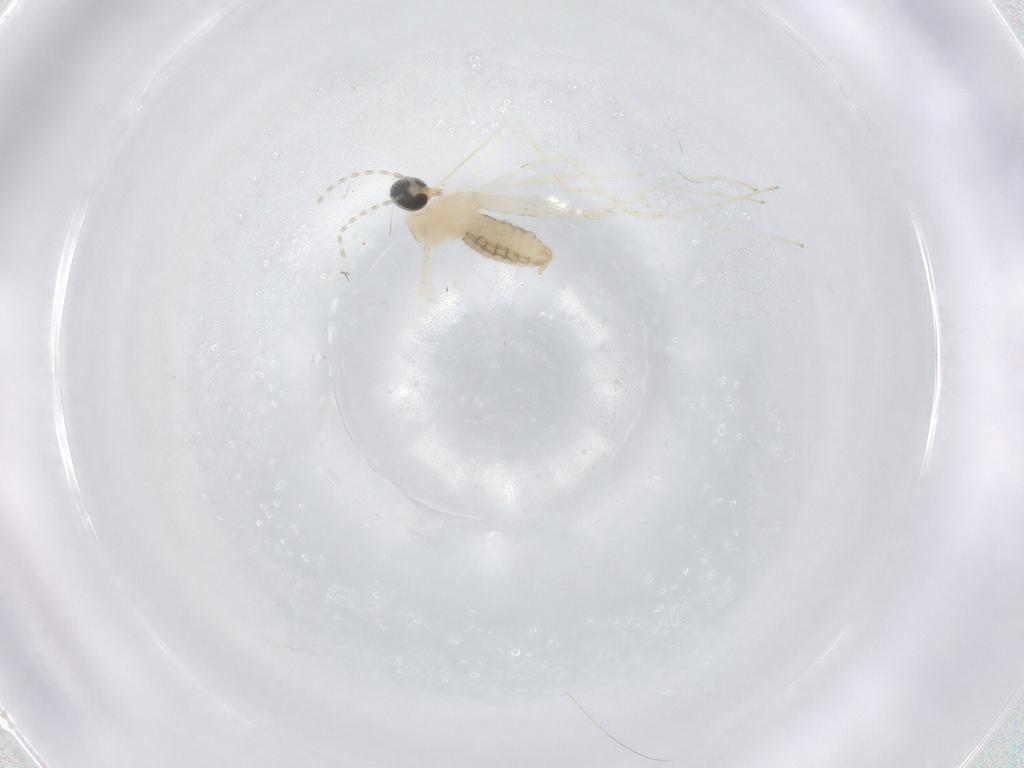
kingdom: Animalia
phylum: Arthropoda
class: Insecta
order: Diptera
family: Cecidomyiidae
